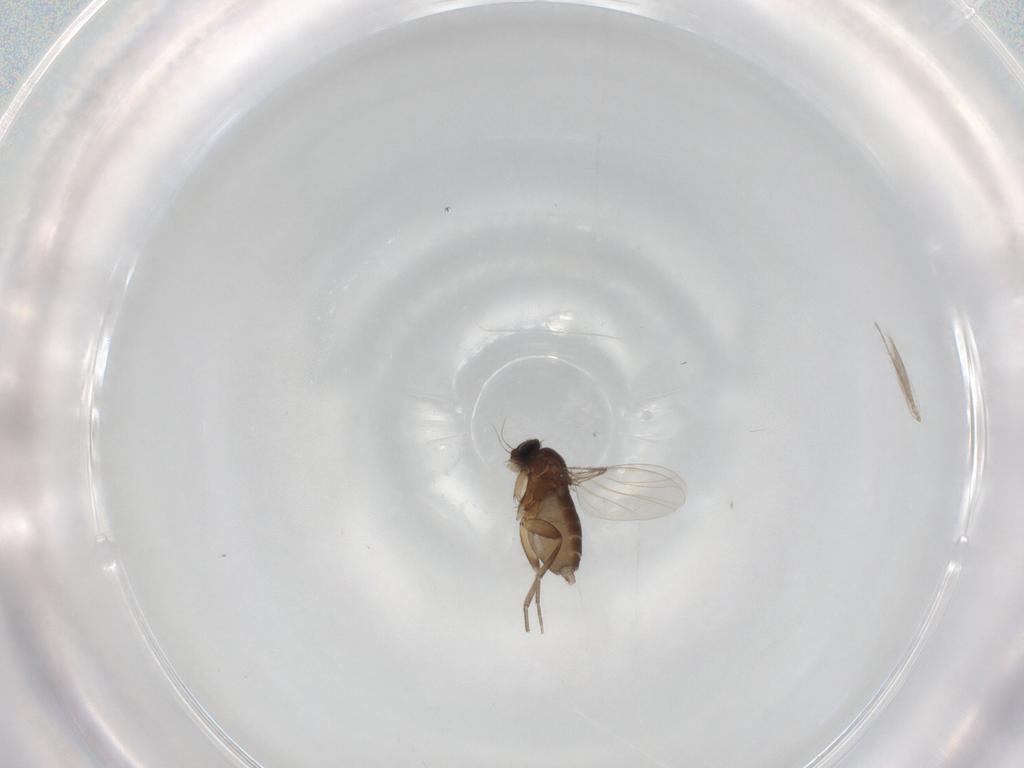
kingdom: Animalia
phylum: Arthropoda
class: Insecta
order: Diptera
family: Phoridae
